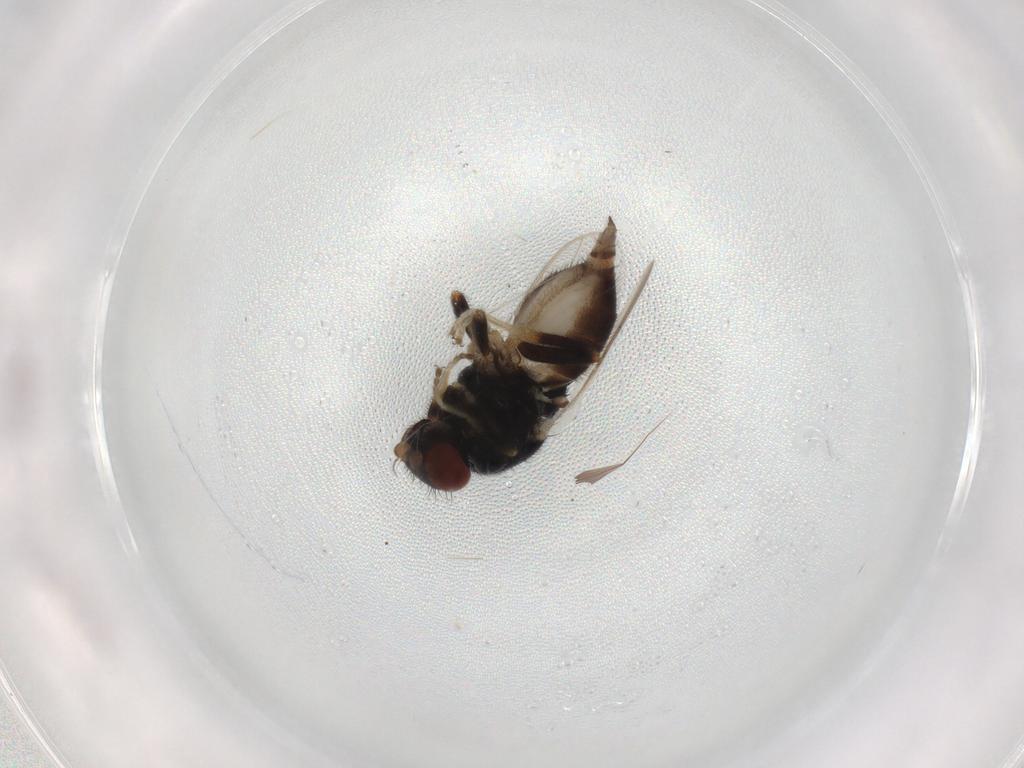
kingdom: Animalia
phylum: Arthropoda
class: Insecta
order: Diptera
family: Chloropidae
